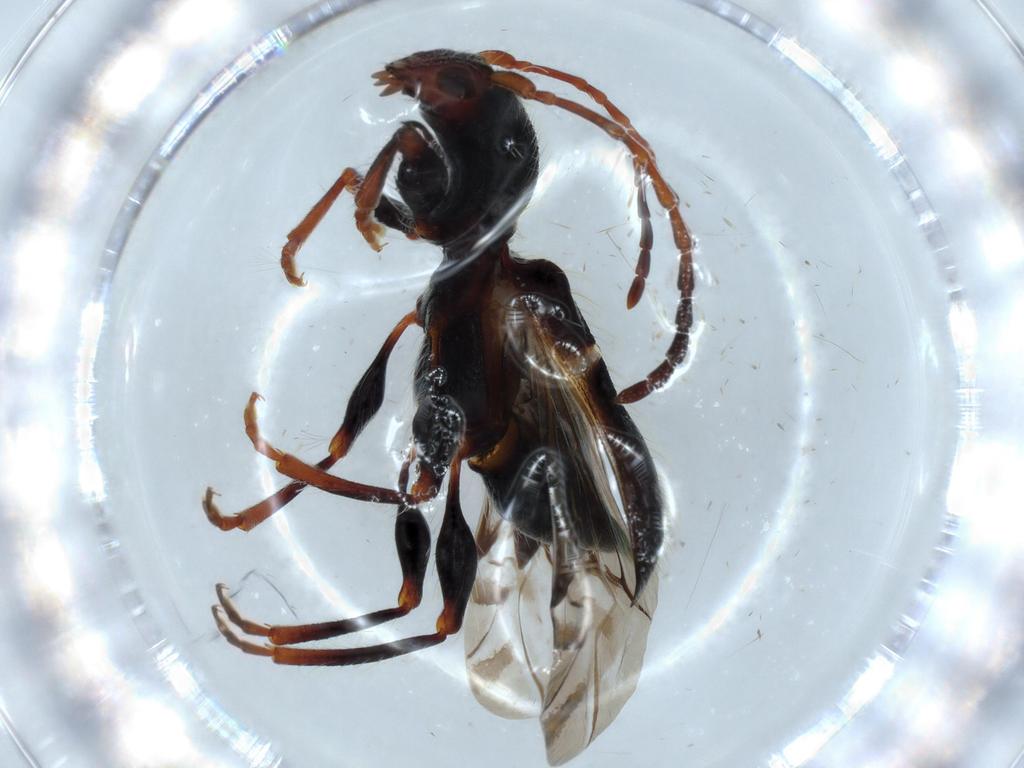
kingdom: Animalia
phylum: Arthropoda
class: Insecta
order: Coleoptera
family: Cerambycidae
